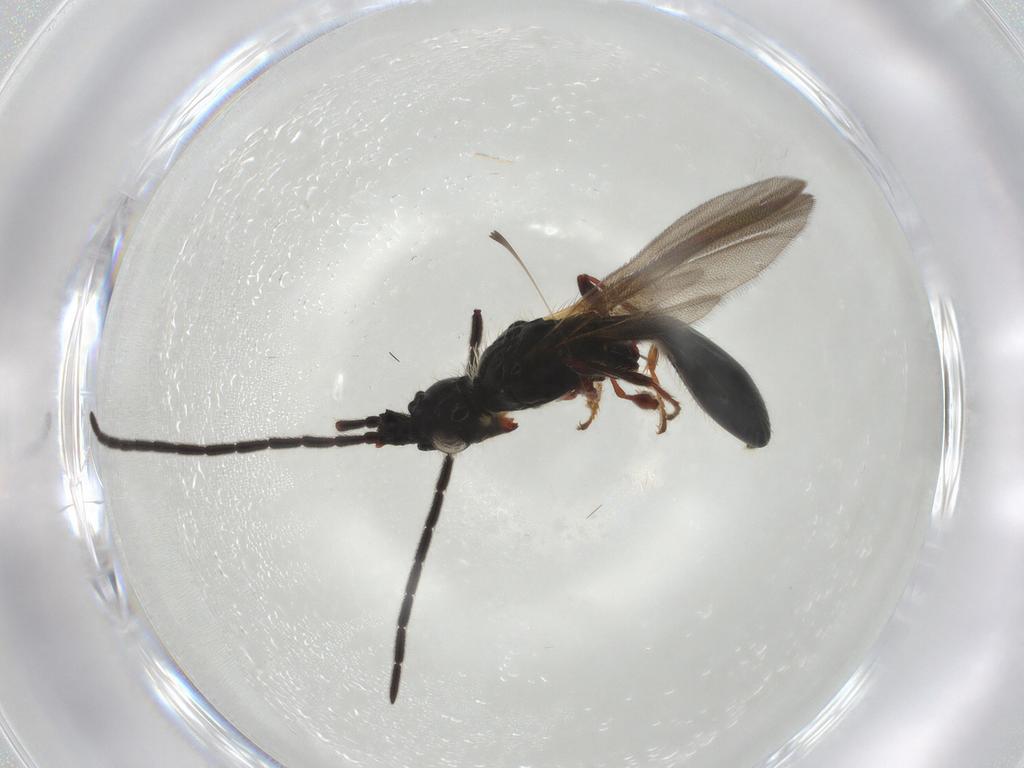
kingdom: Animalia
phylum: Arthropoda
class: Insecta
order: Hymenoptera
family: Diapriidae
